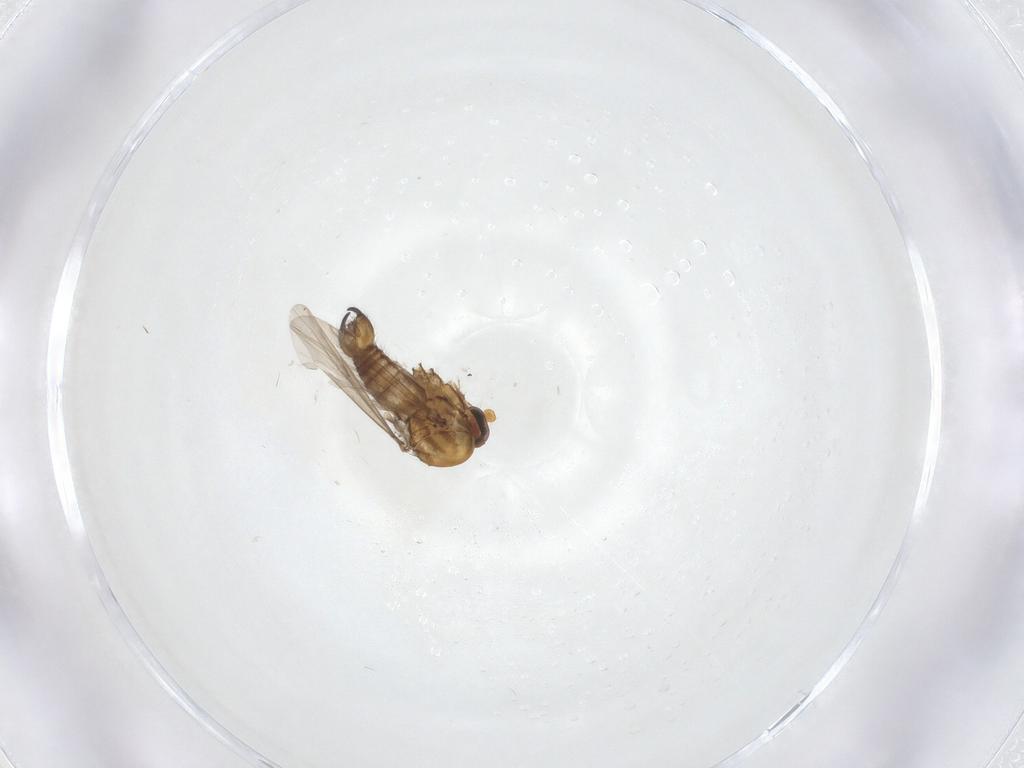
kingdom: Animalia
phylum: Arthropoda
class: Insecta
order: Diptera
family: Chironomidae
